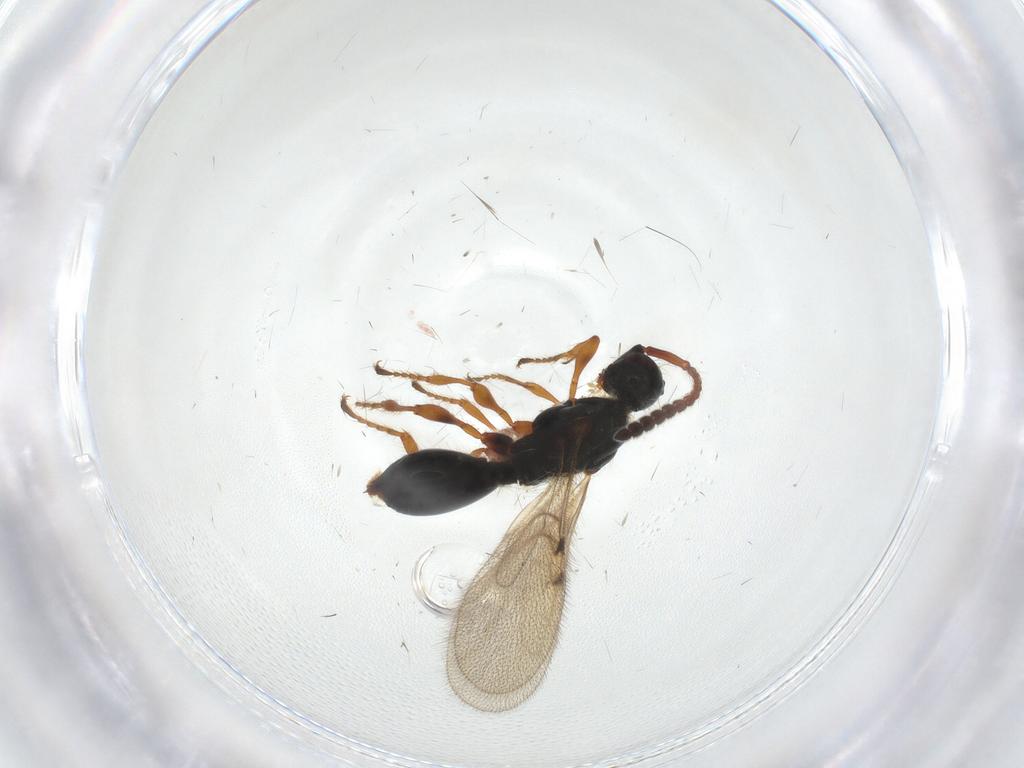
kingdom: Animalia
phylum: Arthropoda
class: Insecta
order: Hymenoptera
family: Diapriidae
